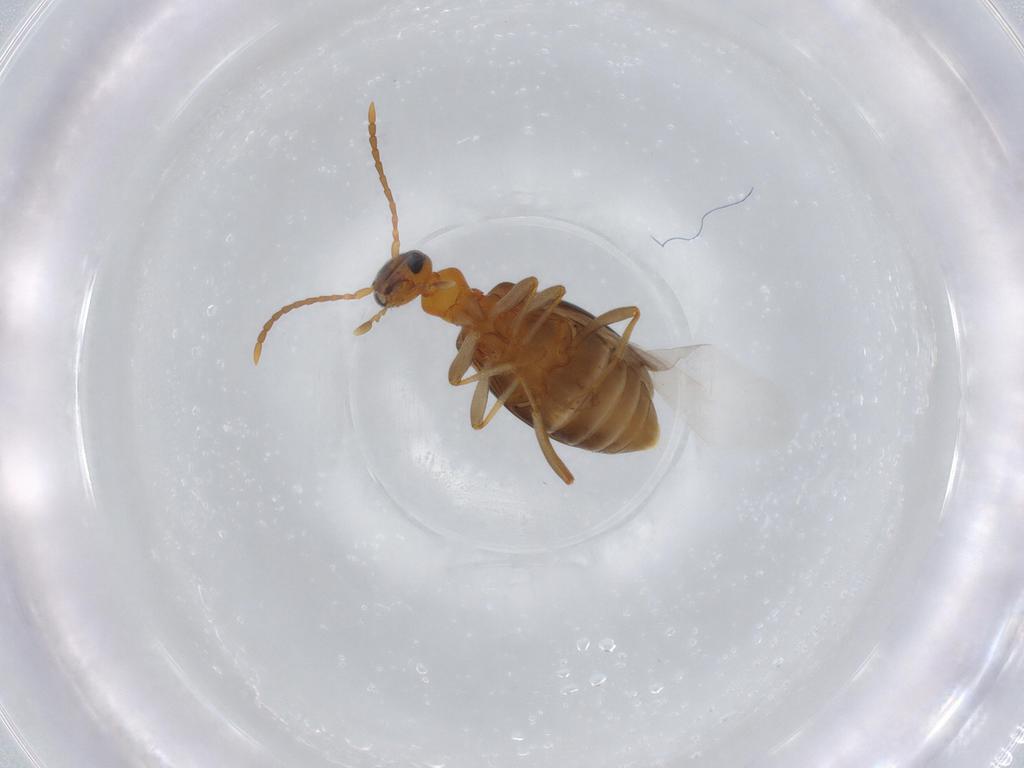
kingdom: Animalia
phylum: Arthropoda
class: Insecta
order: Coleoptera
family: Anthicidae
